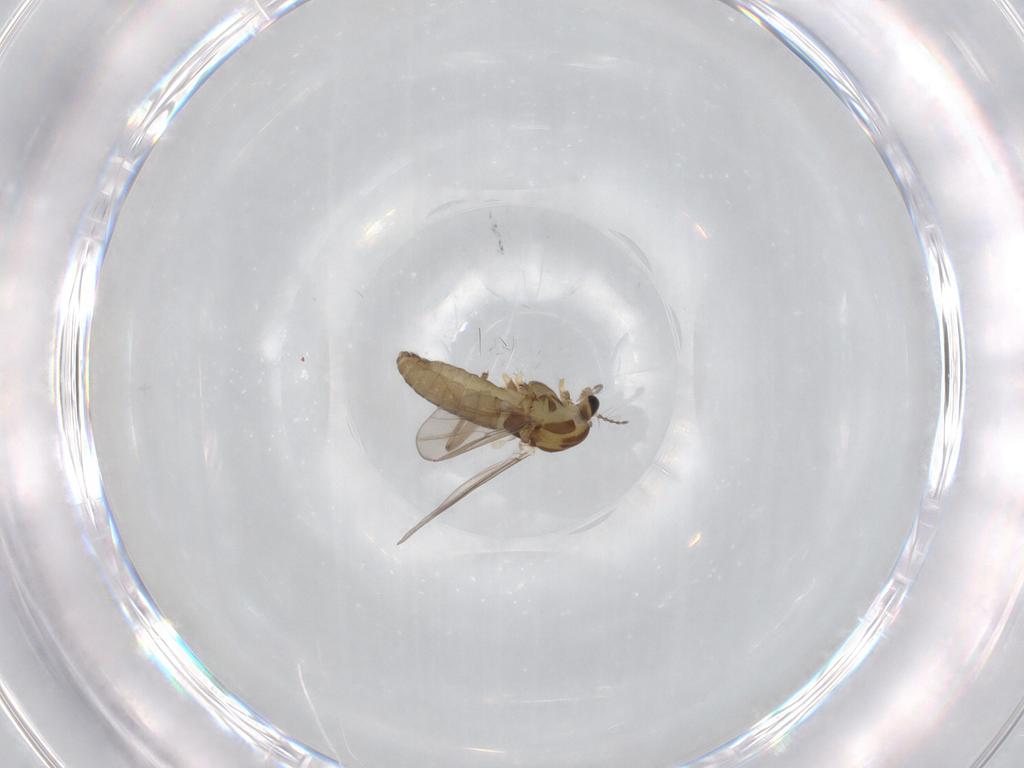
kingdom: Animalia
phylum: Arthropoda
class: Insecta
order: Diptera
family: Chironomidae
